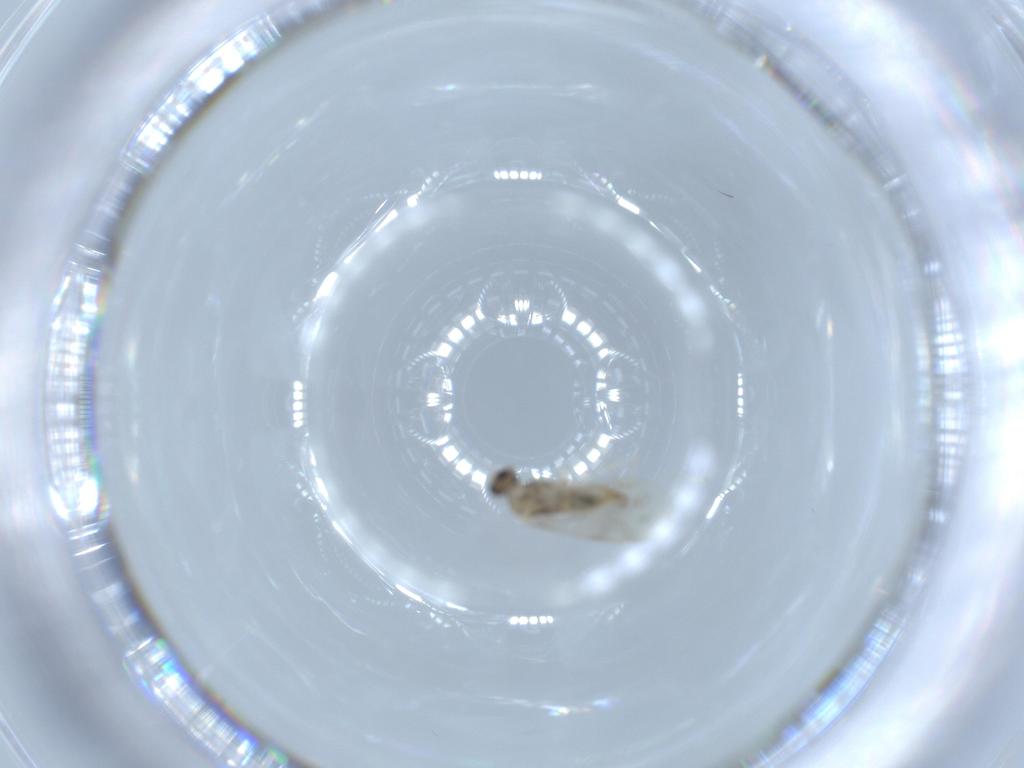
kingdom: Animalia
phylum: Arthropoda
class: Insecta
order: Diptera
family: Cecidomyiidae
